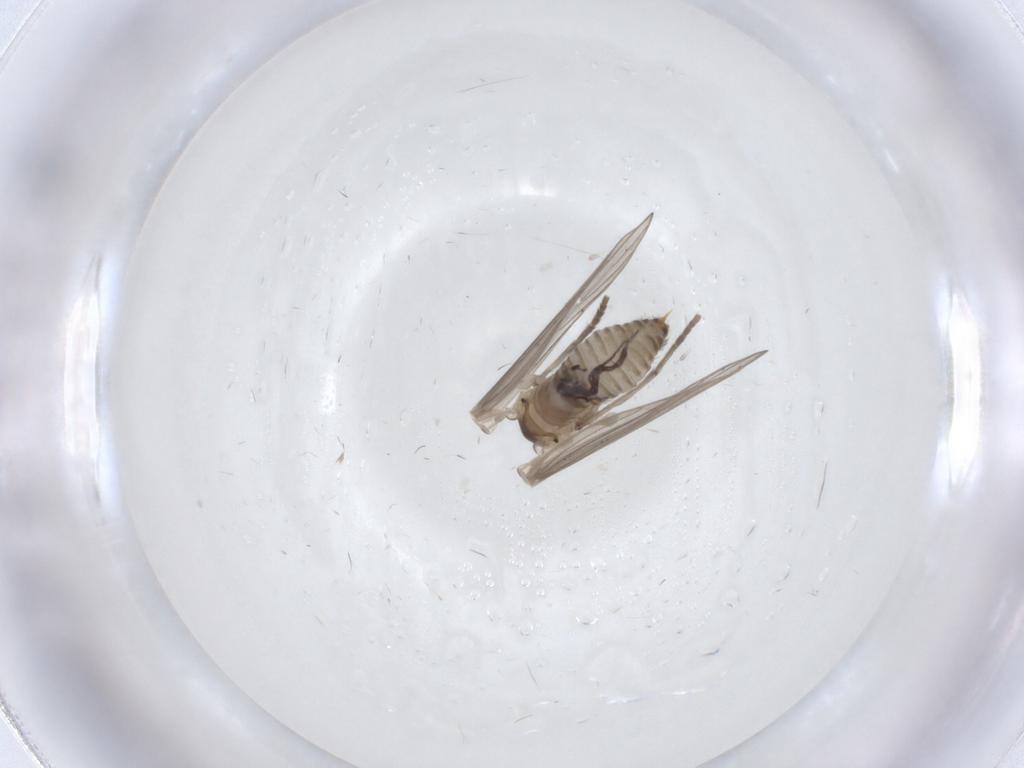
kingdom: Animalia
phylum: Arthropoda
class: Insecta
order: Diptera
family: Psychodidae
